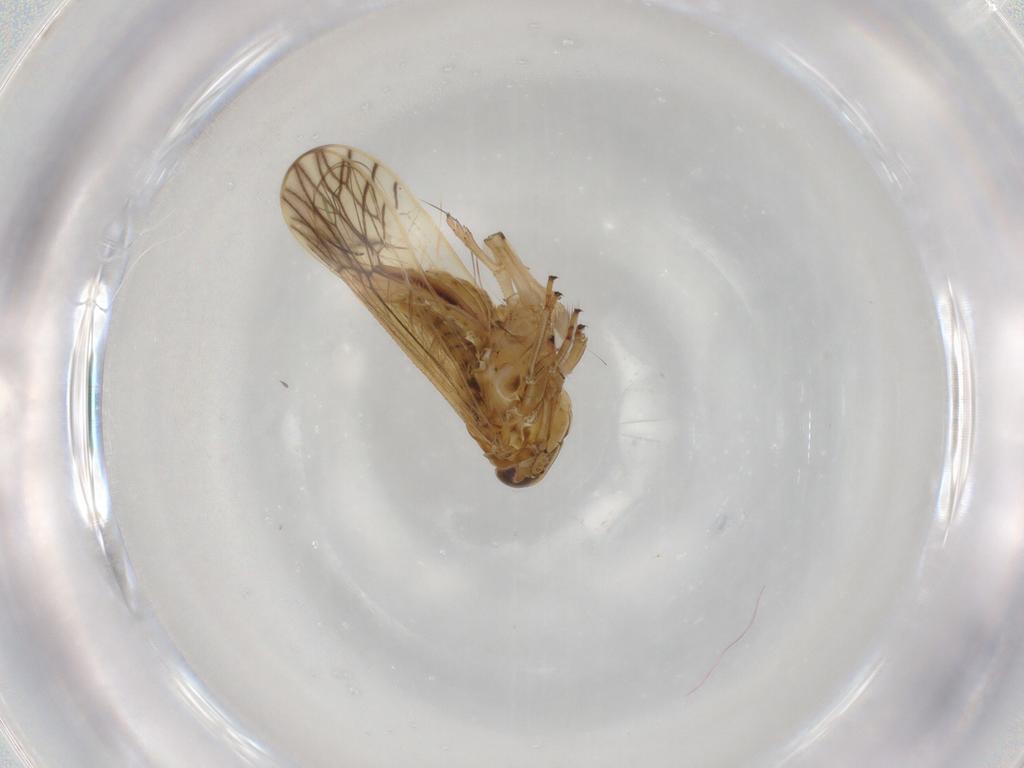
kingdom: Animalia
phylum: Arthropoda
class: Insecta
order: Hemiptera
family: Delphacidae
